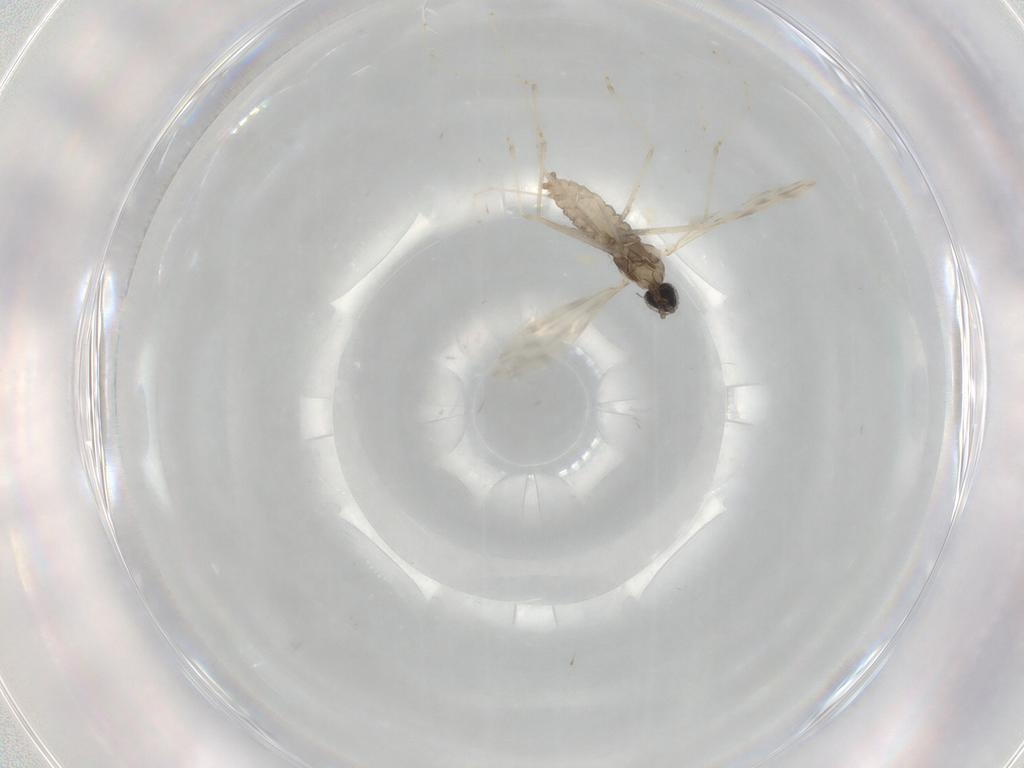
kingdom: Animalia
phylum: Arthropoda
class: Insecta
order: Diptera
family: Cecidomyiidae
